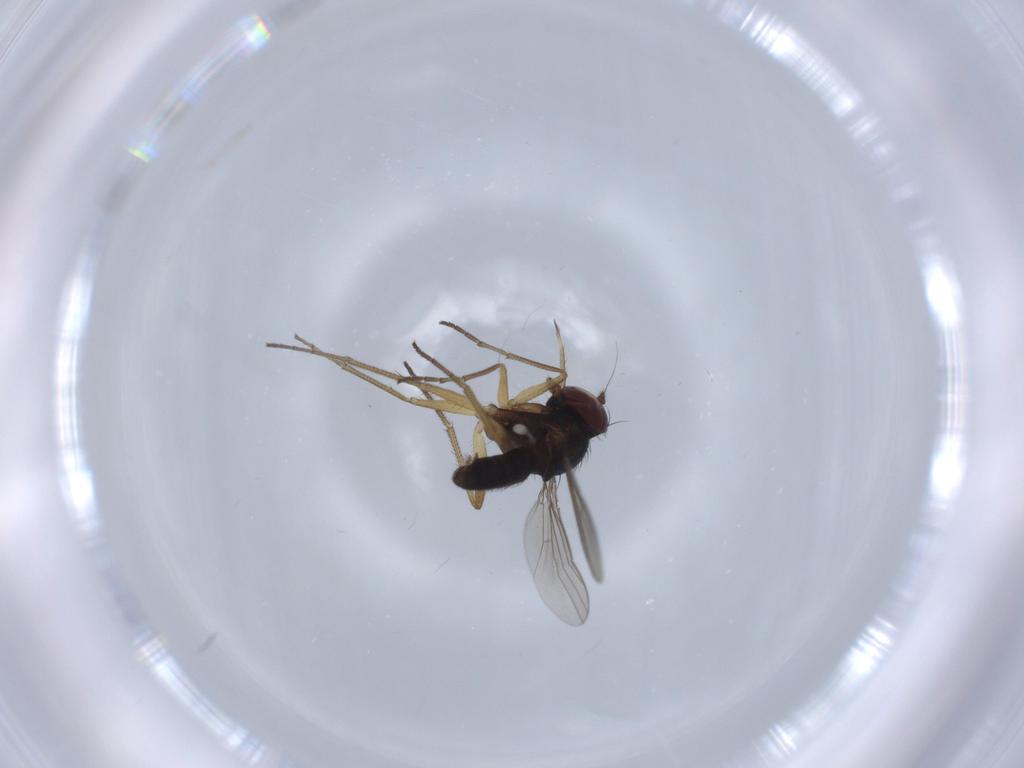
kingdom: Animalia
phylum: Arthropoda
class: Insecta
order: Diptera
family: Dolichopodidae
